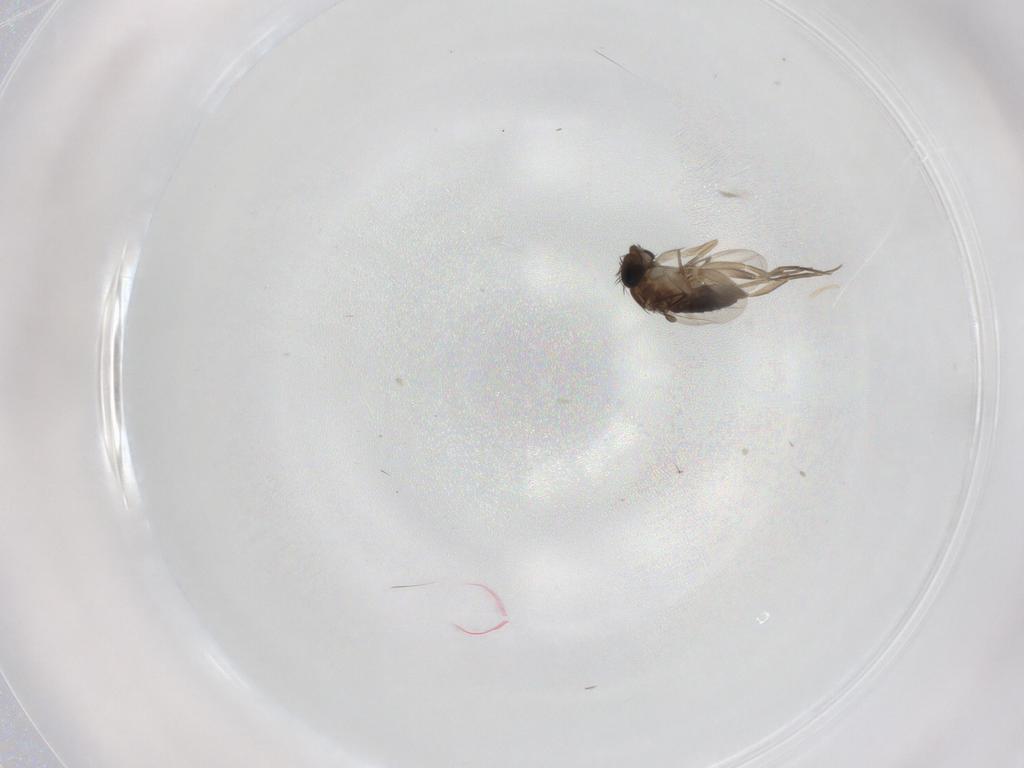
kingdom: Animalia
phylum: Arthropoda
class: Insecta
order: Diptera
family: Phoridae
